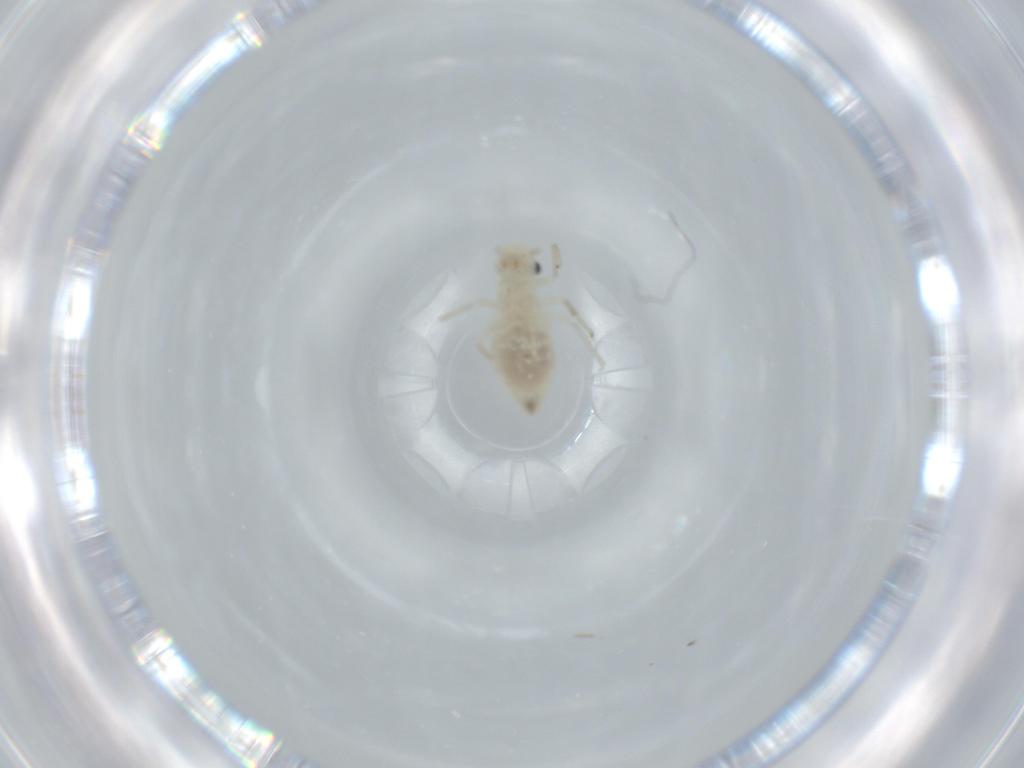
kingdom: Animalia
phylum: Arthropoda
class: Insecta
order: Psocodea
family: Caeciliusidae
